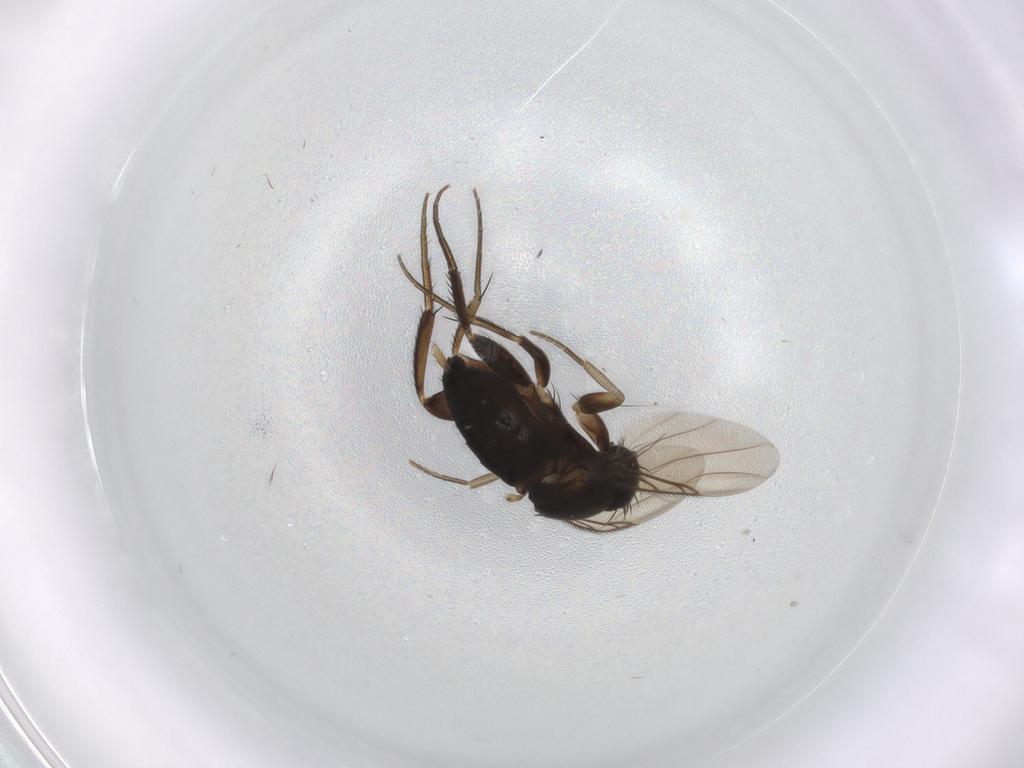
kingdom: Animalia
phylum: Arthropoda
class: Insecta
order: Diptera
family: Phoridae
